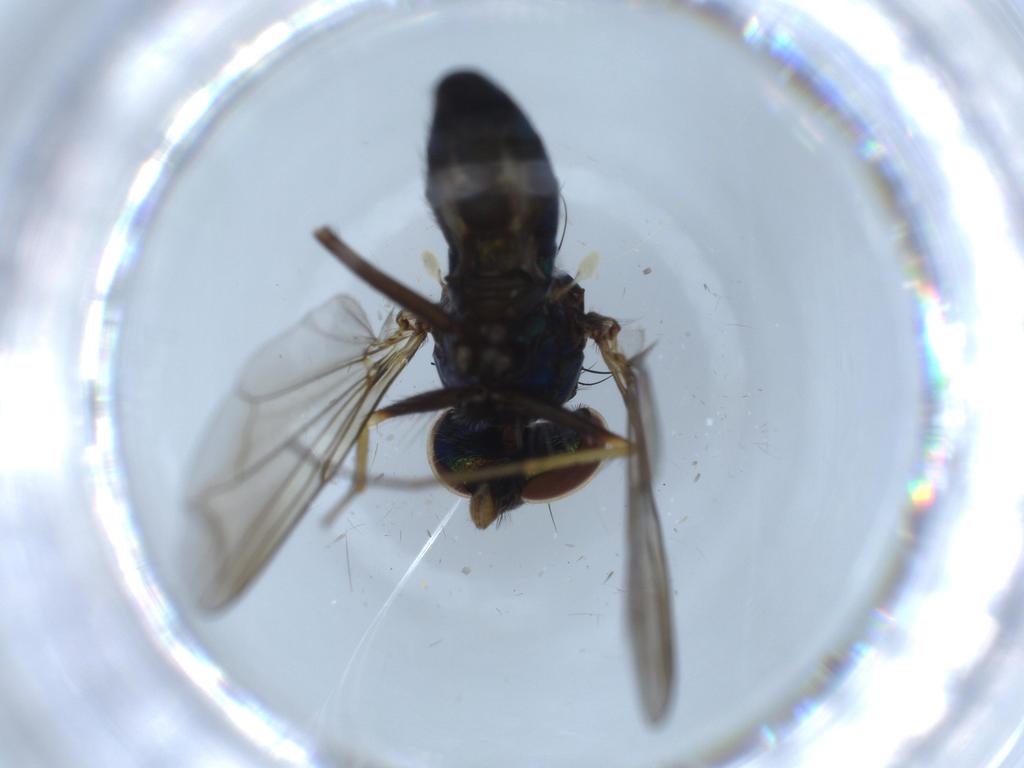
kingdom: Animalia
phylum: Arthropoda
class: Insecta
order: Diptera
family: Dolichopodidae
